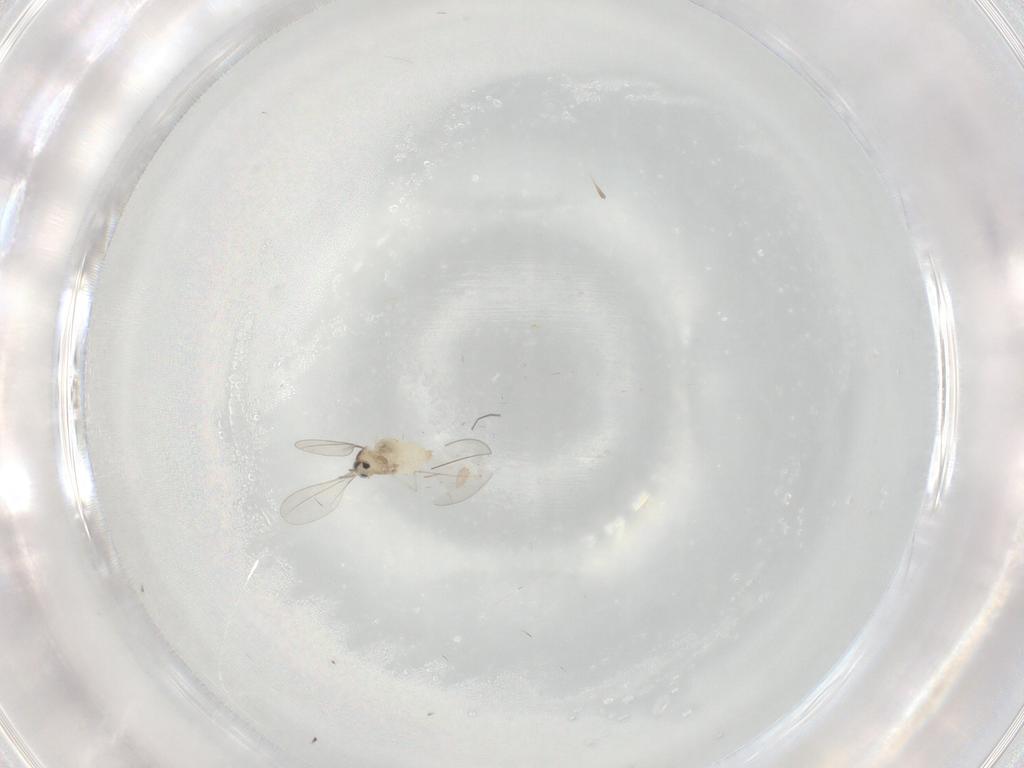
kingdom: Animalia
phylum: Arthropoda
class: Insecta
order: Diptera
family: Cecidomyiidae
